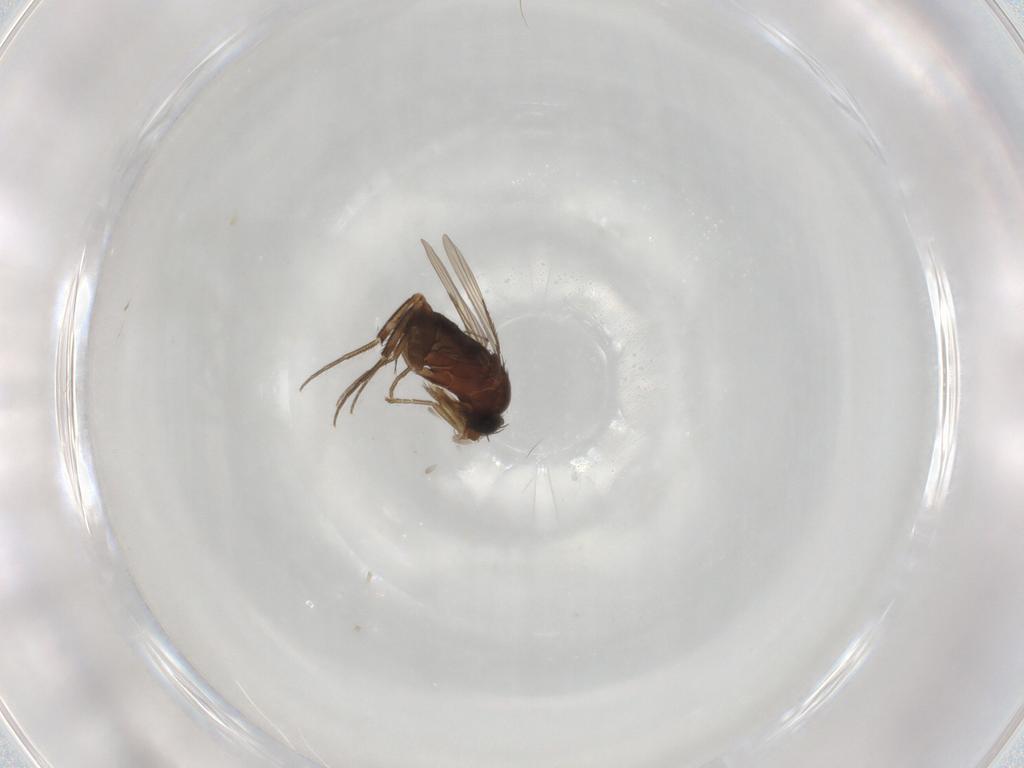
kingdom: Animalia
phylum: Arthropoda
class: Insecta
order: Diptera
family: Phoridae
